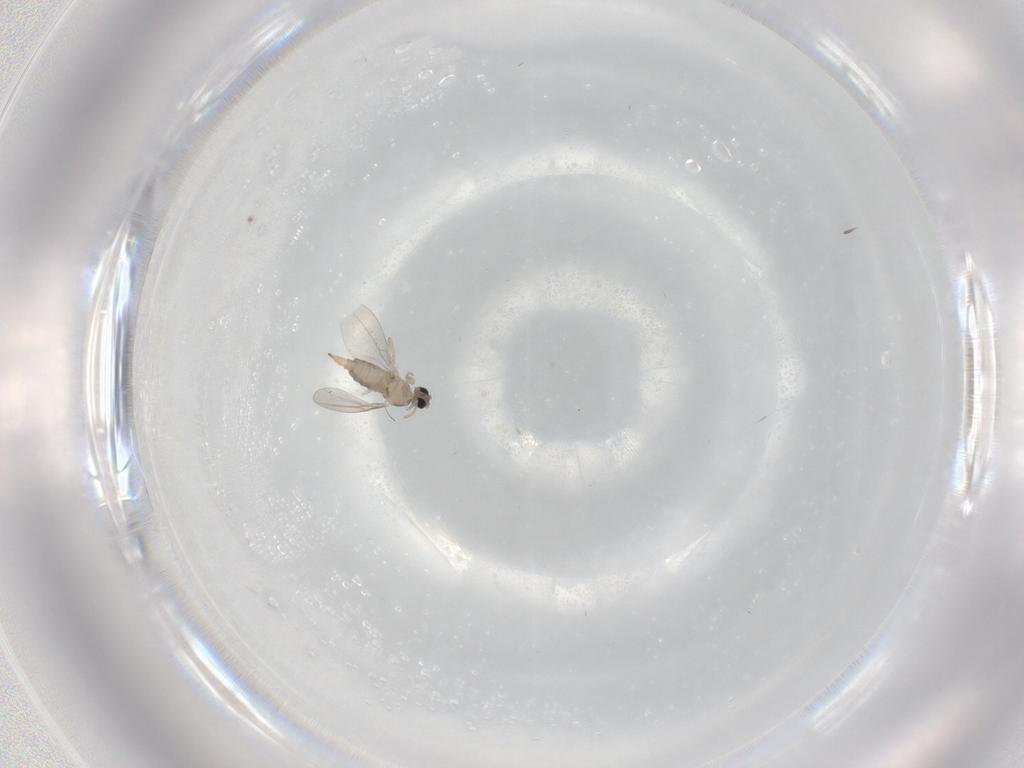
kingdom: Animalia
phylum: Arthropoda
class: Insecta
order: Diptera
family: Cecidomyiidae
